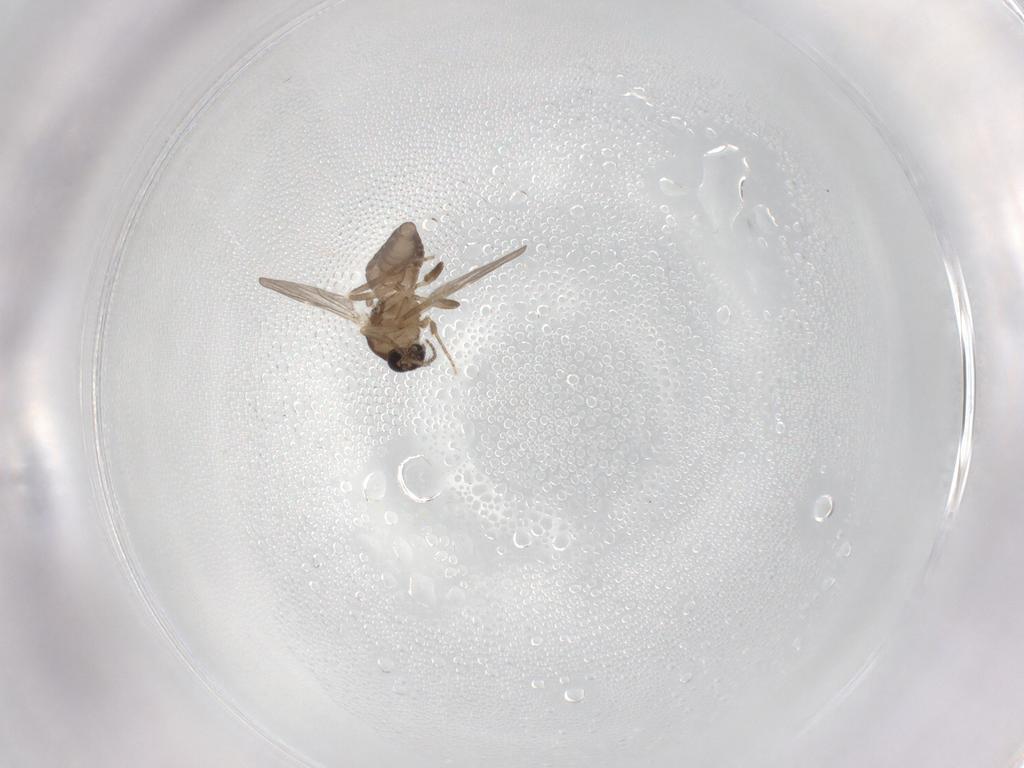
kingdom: Animalia
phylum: Arthropoda
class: Insecta
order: Diptera
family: Ceratopogonidae
